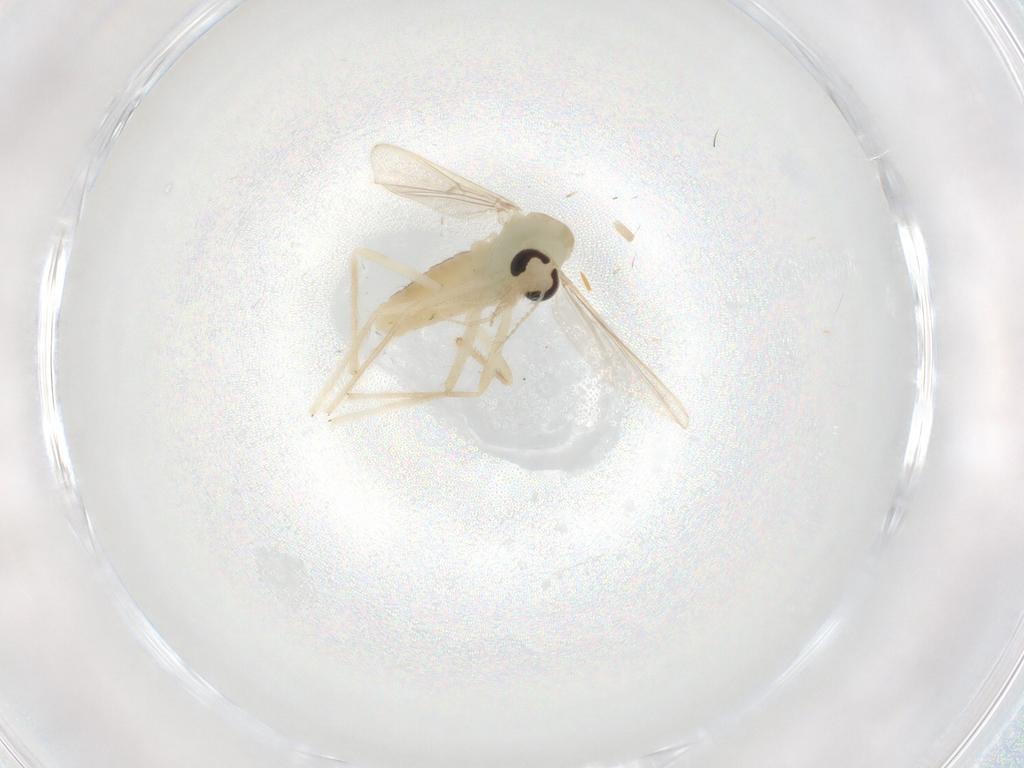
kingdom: Animalia
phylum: Arthropoda
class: Insecta
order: Diptera
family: Chironomidae
